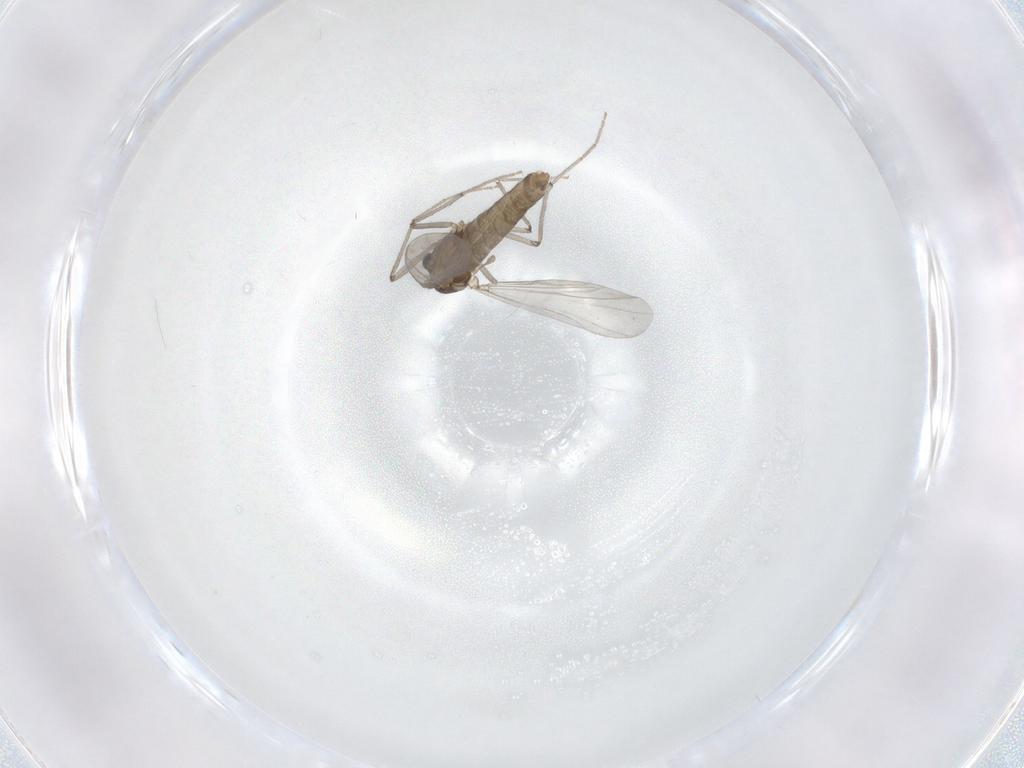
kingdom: Animalia
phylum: Arthropoda
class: Insecta
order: Diptera
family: Chironomidae
